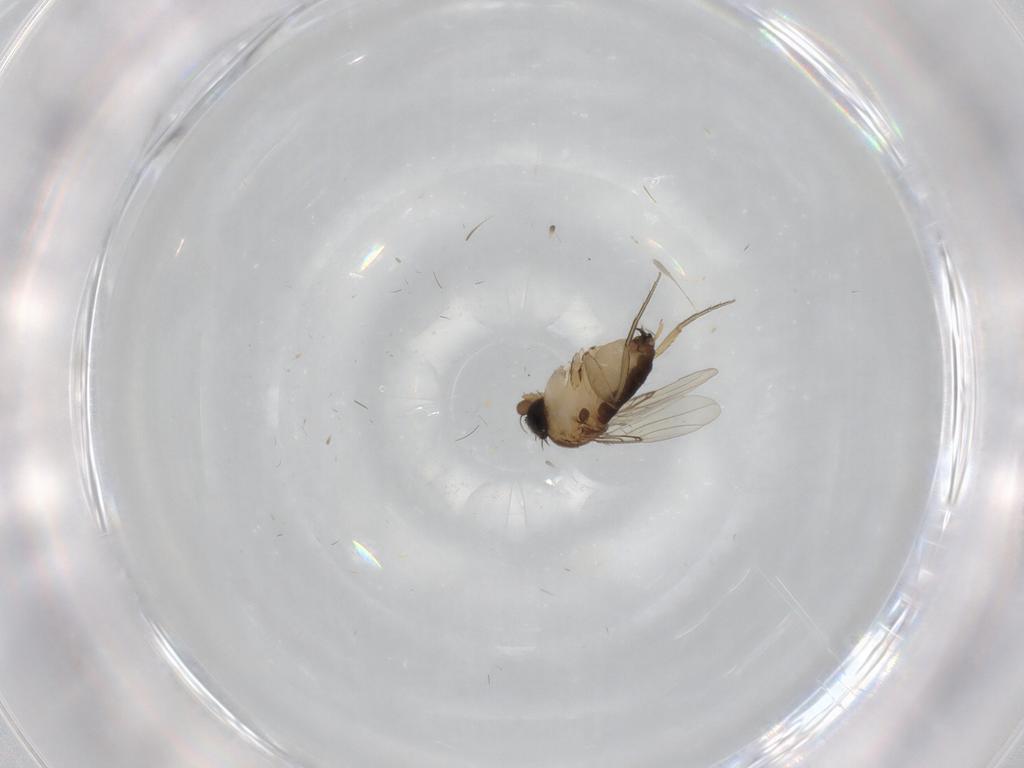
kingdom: Animalia
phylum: Arthropoda
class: Insecta
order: Diptera
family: Phoridae
